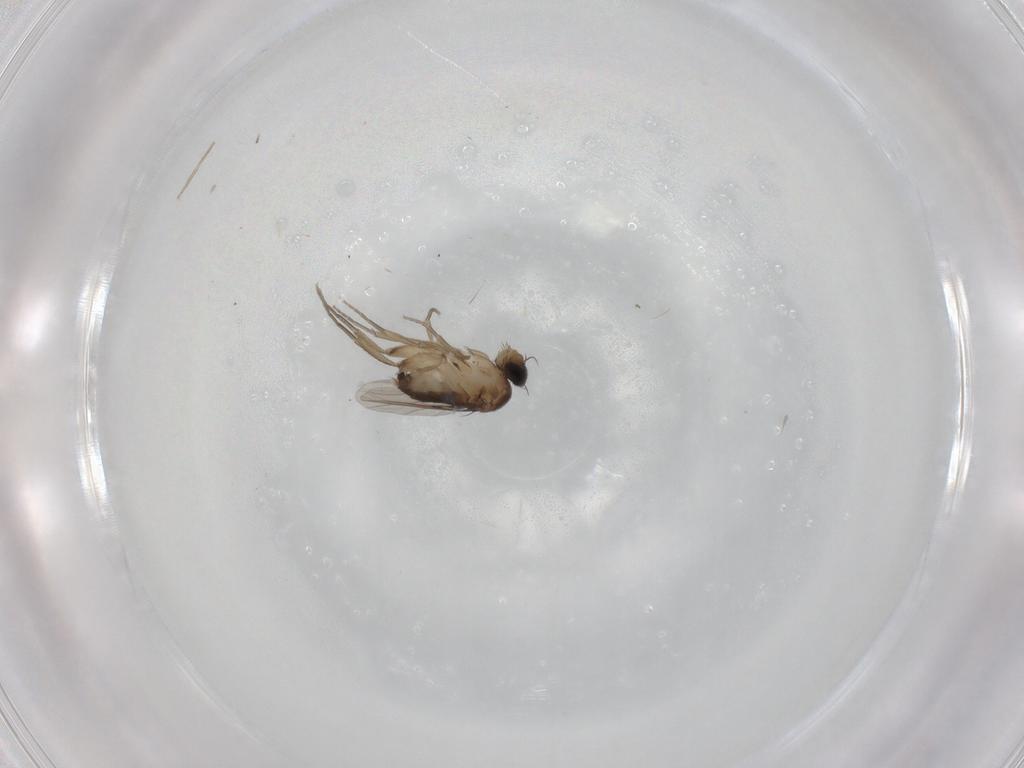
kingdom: Animalia
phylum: Arthropoda
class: Insecta
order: Diptera
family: Phoridae
